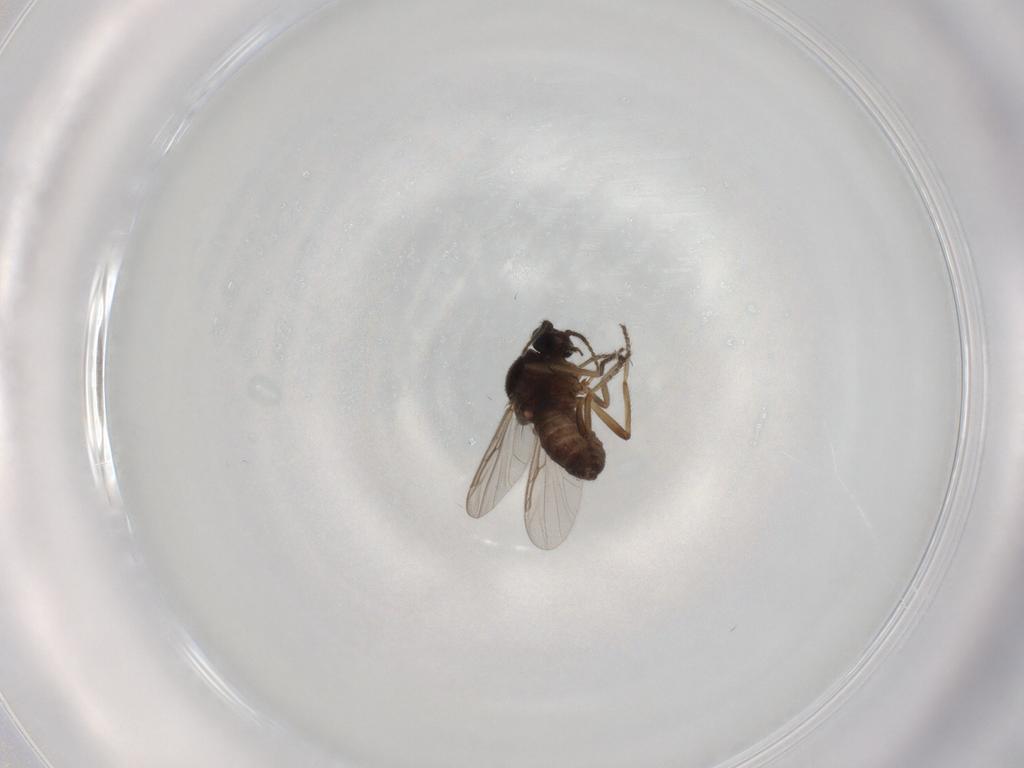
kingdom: Animalia
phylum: Arthropoda
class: Insecta
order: Diptera
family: Ceratopogonidae
